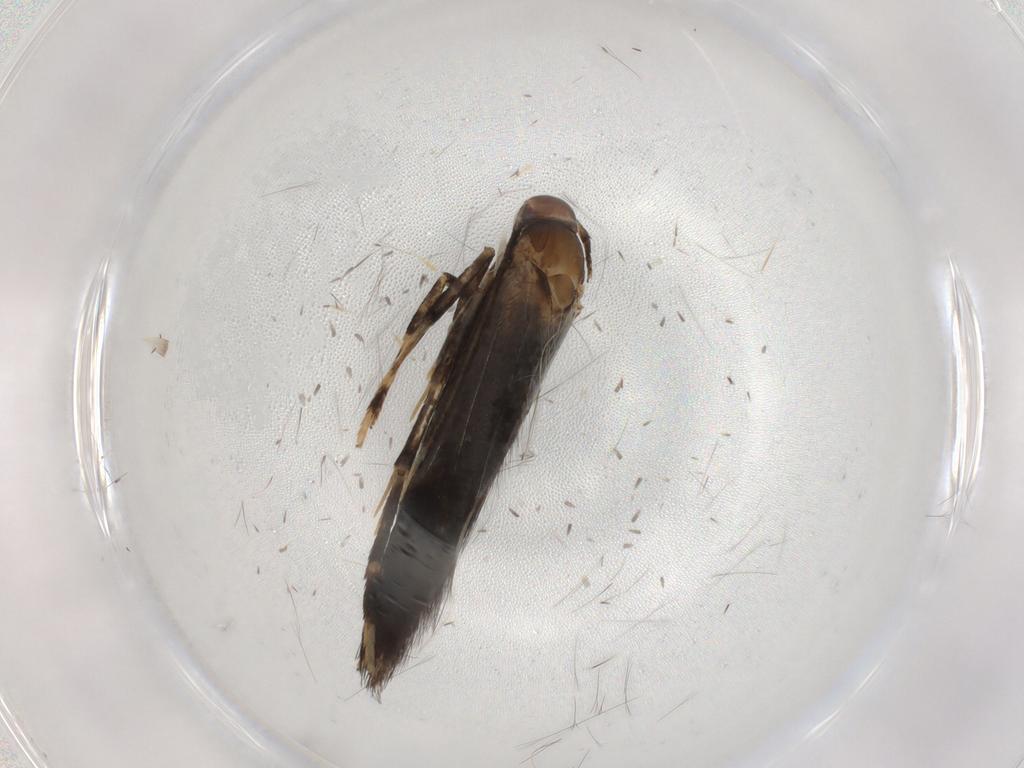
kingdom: Animalia
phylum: Arthropoda
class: Insecta
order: Lepidoptera
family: Cosmopterigidae
